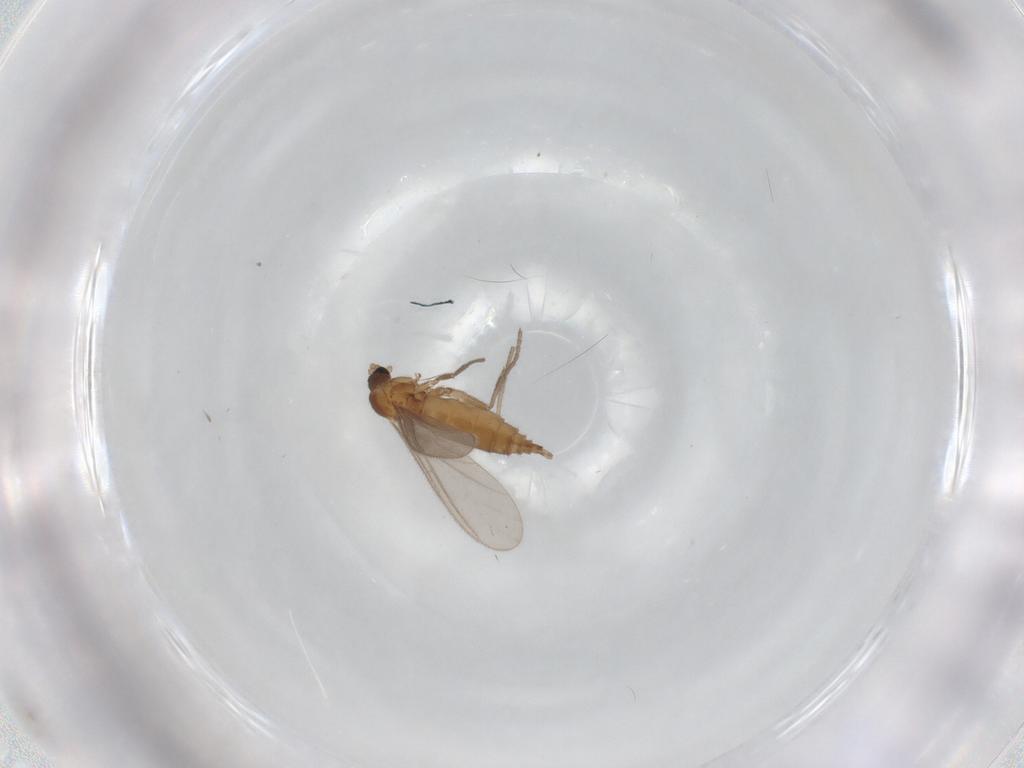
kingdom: Animalia
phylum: Arthropoda
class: Insecta
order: Diptera
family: Sciaridae
